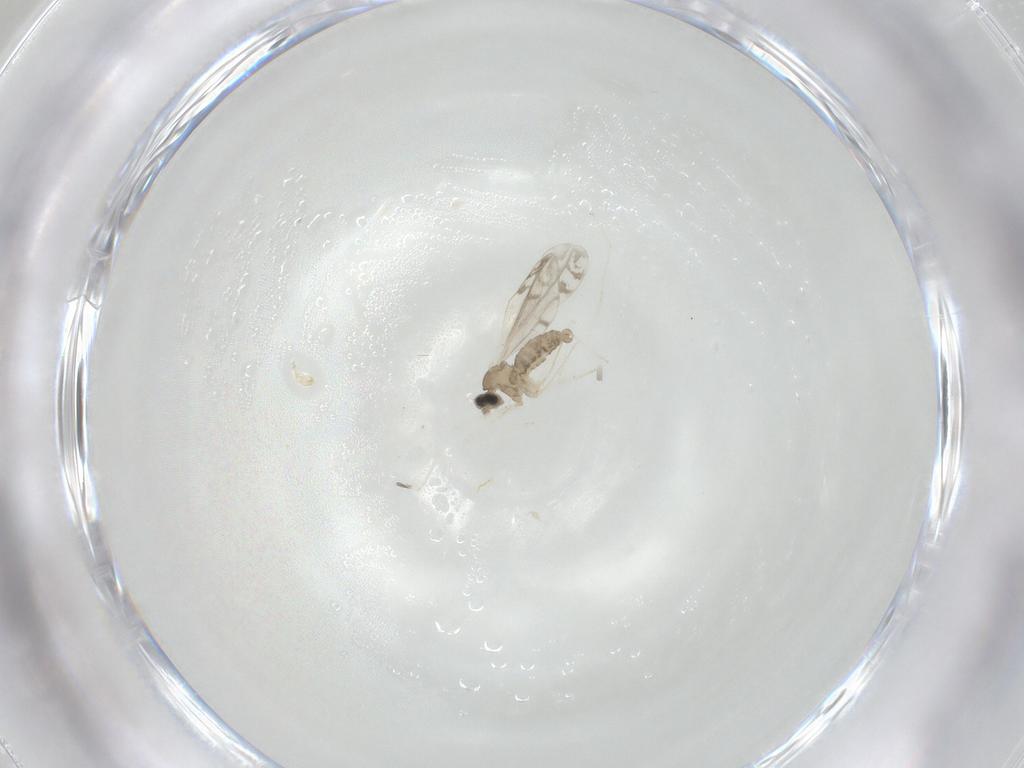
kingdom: Animalia
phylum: Arthropoda
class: Insecta
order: Diptera
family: Cecidomyiidae
